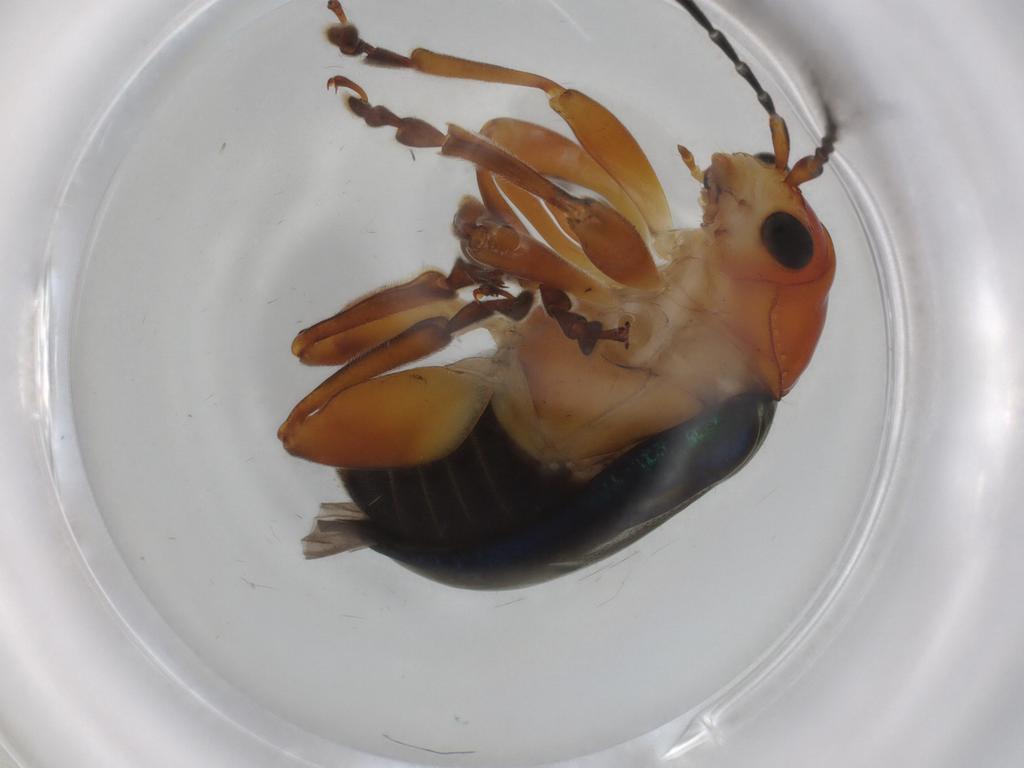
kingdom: Animalia
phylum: Arthropoda
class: Insecta
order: Coleoptera
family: Chrysomelidae
